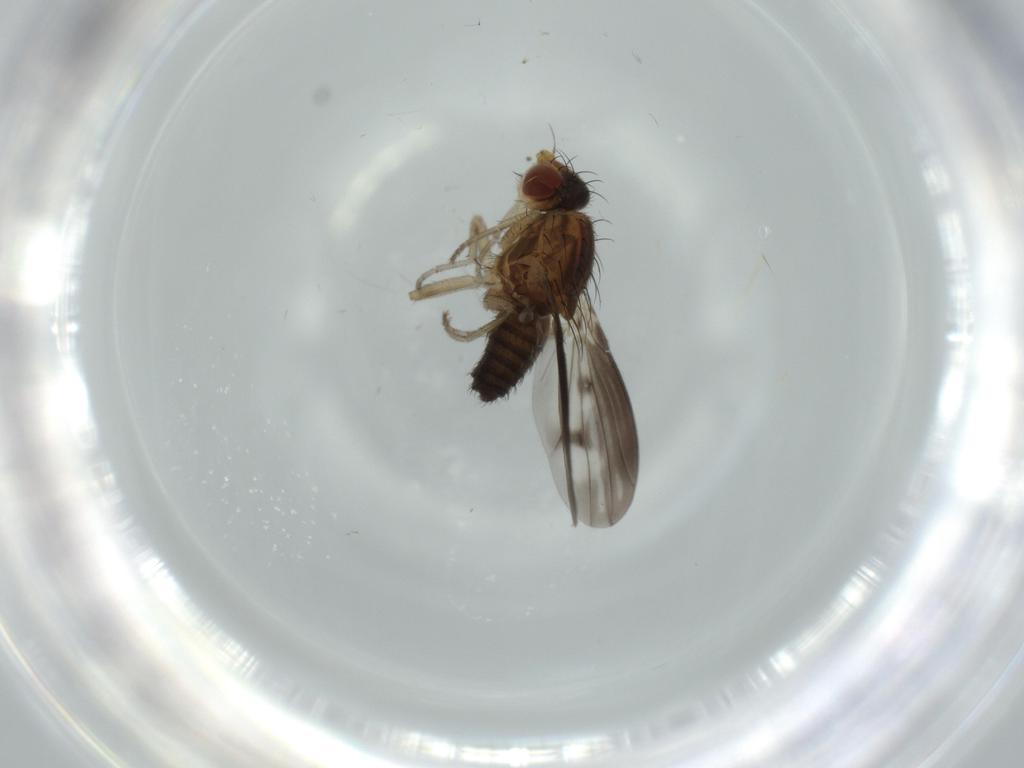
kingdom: Animalia
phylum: Arthropoda
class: Insecta
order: Diptera
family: Heleomyzidae
